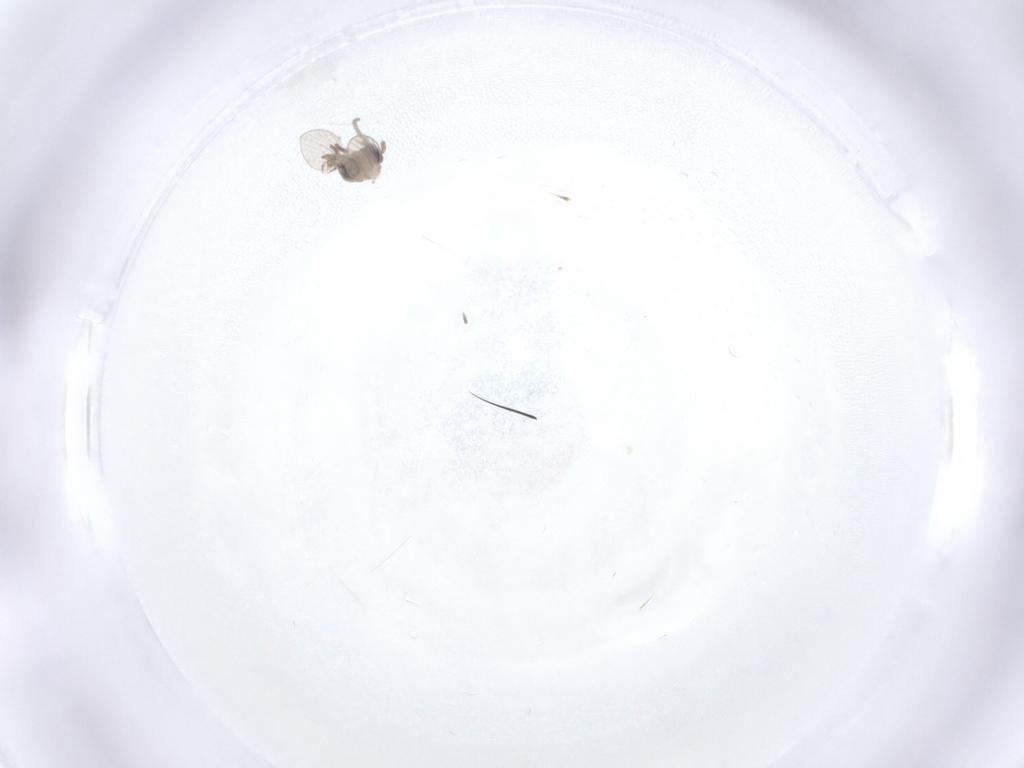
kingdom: Animalia
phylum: Arthropoda
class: Insecta
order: Diptera
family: Psychodidae
